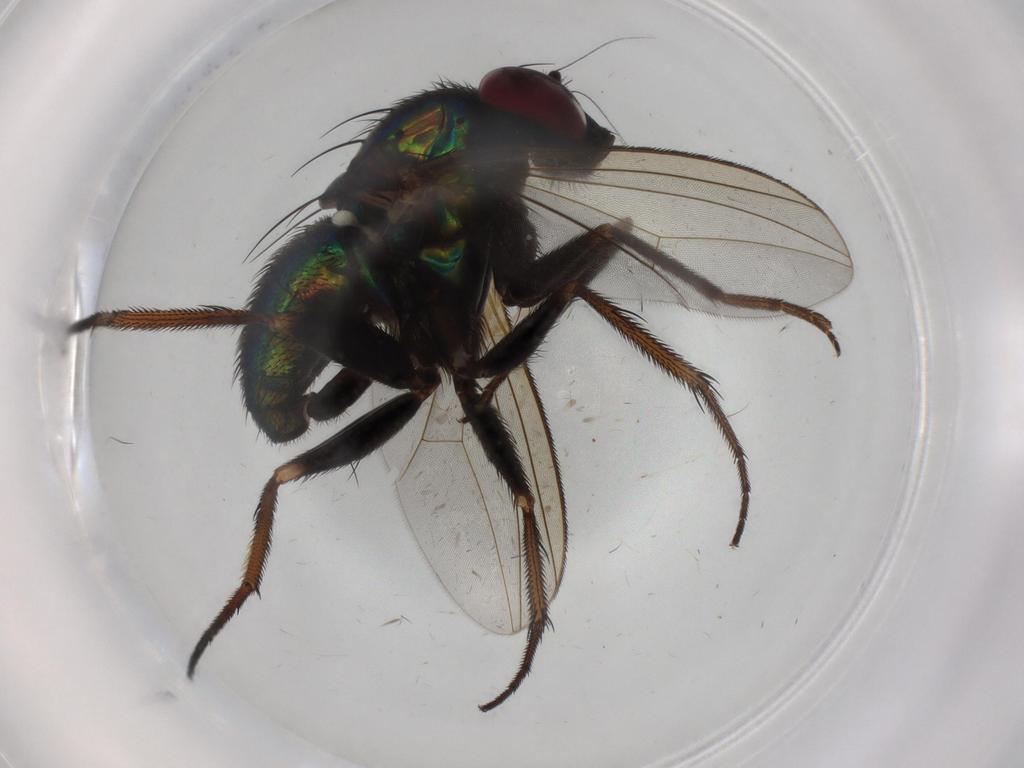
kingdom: Animalia
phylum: Arthropoda
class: Insecta
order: Diptera
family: Dolichopodidae
